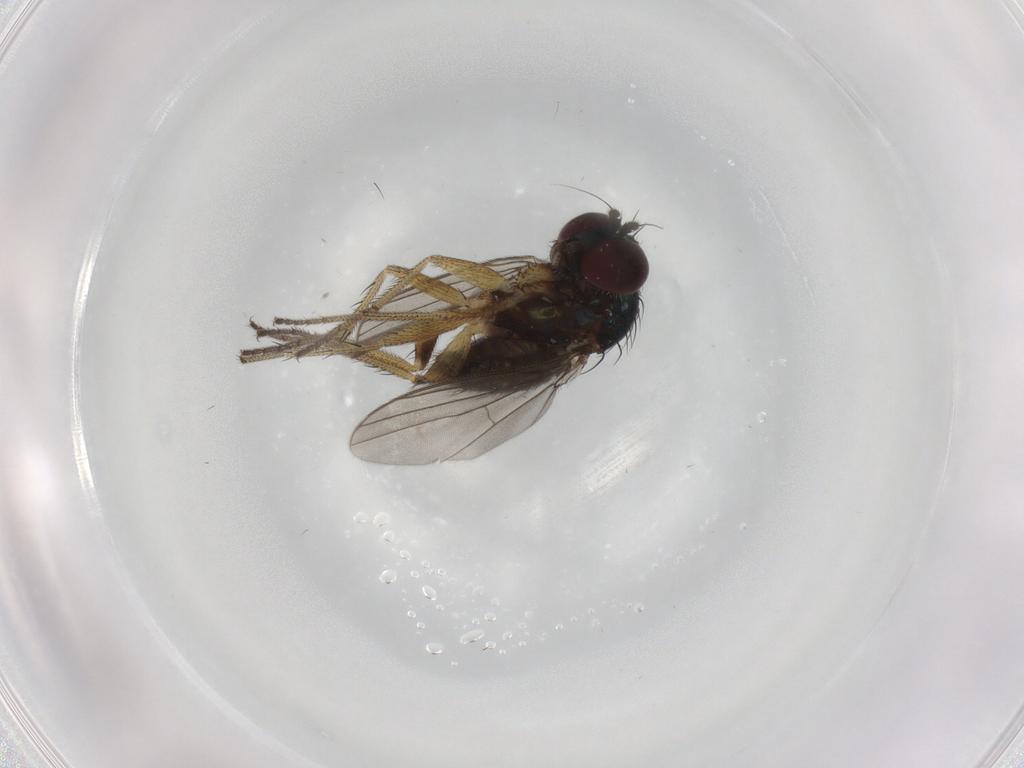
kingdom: Animalia
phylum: Arthropoda
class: Insecta
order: Diptera
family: Dolichopodidae
